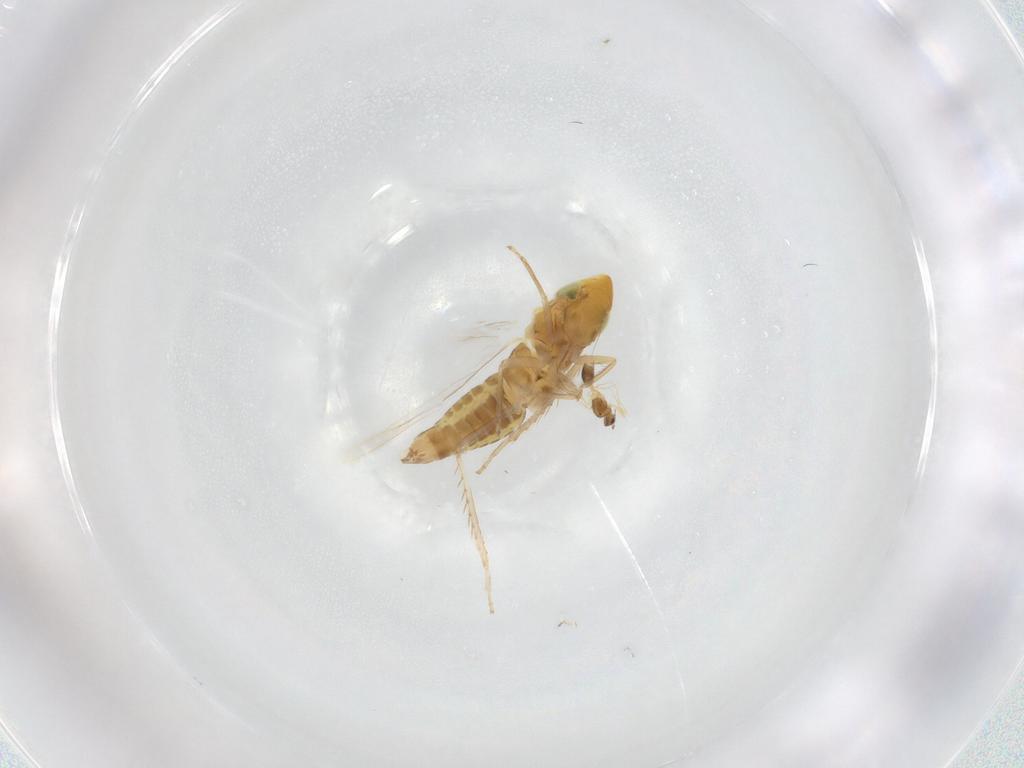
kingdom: Animalia
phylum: Arthropoda
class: Insecta
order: Diptera
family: Cecidomyiidae
